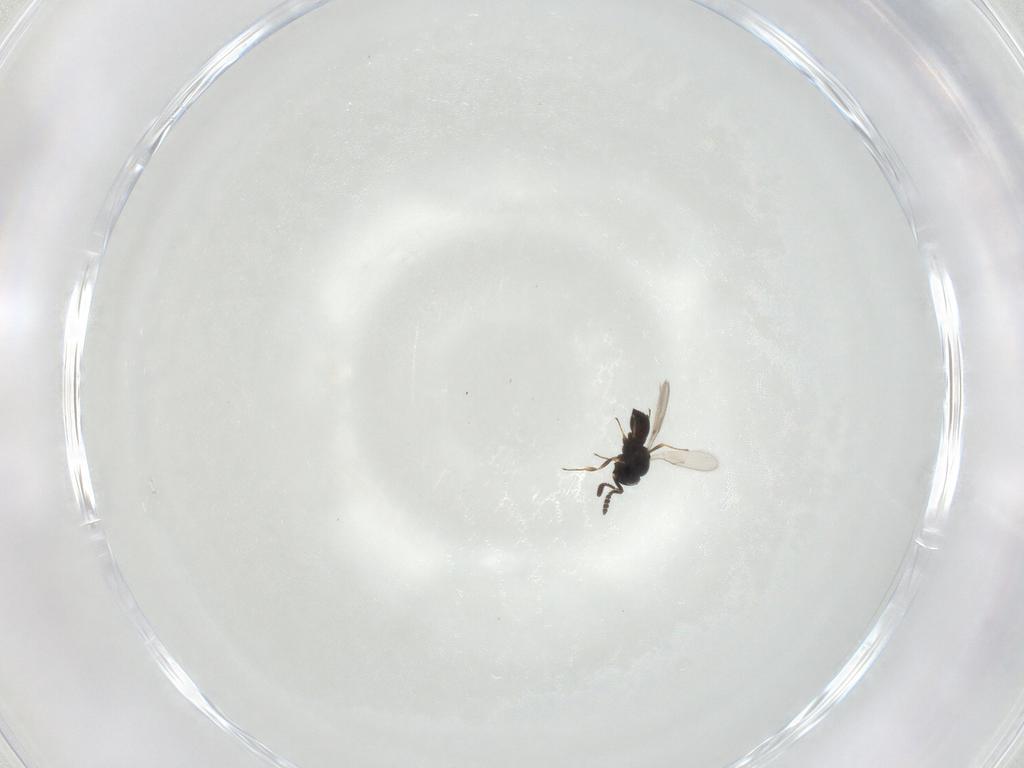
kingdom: Animalia
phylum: Arthropoda
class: Insecta
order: Hymenoptera
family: Scelionidae
